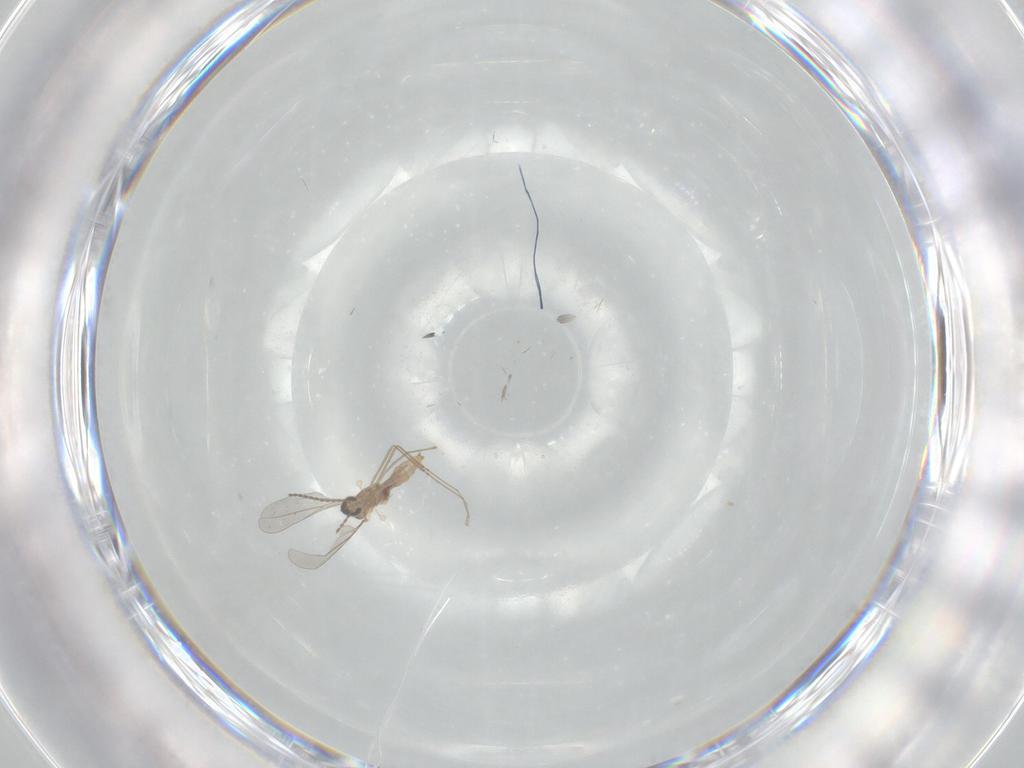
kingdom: Animalia
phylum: Arthropoda
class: Insecta
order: Diptera
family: Cecidomyiidae
